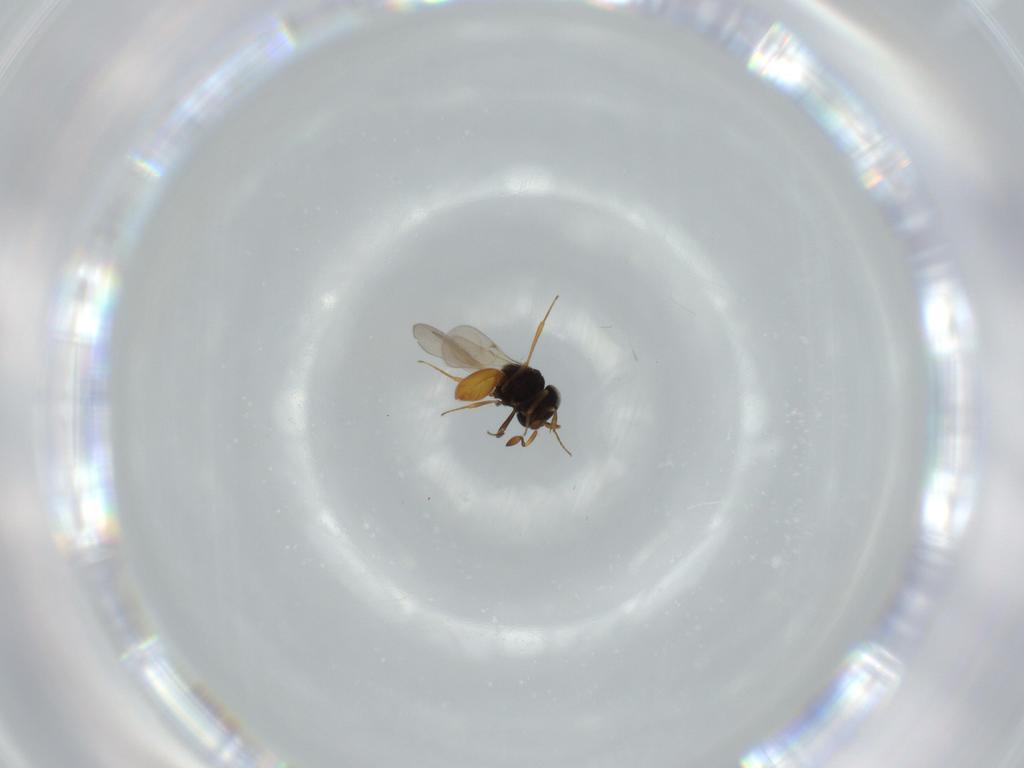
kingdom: Animalia
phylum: Arthropoda
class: Insecta
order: Hymenoptera
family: Scelionidae
